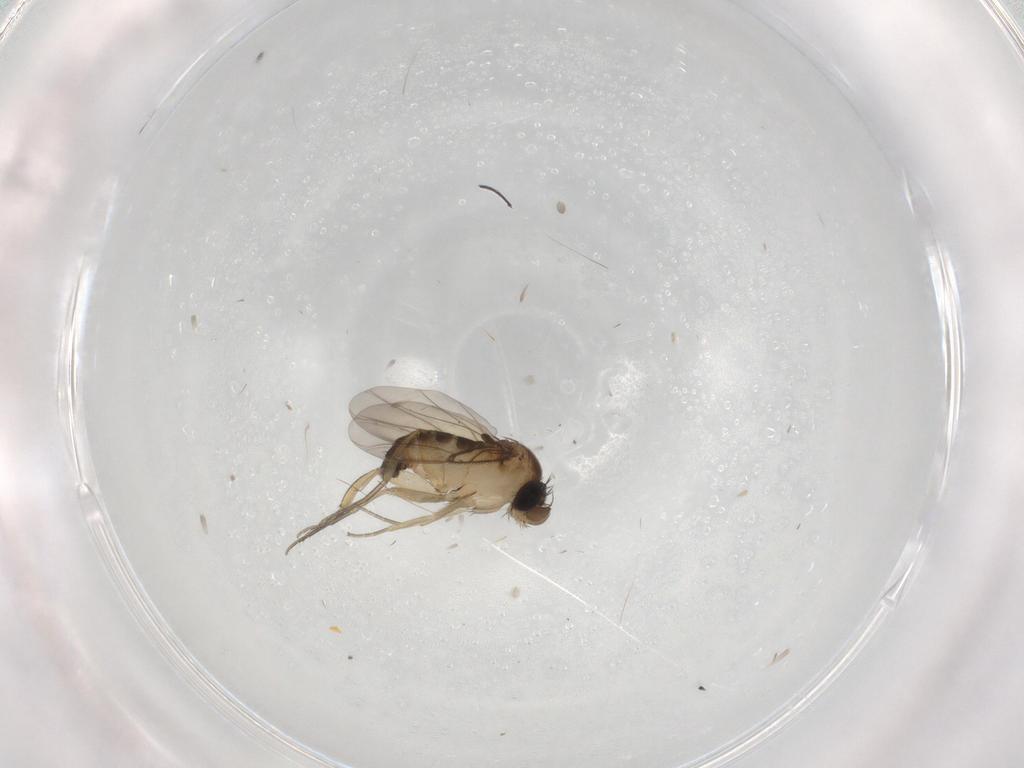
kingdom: Animalia
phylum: Arthropoda
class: Insecta
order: Diptera
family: Phoridae
